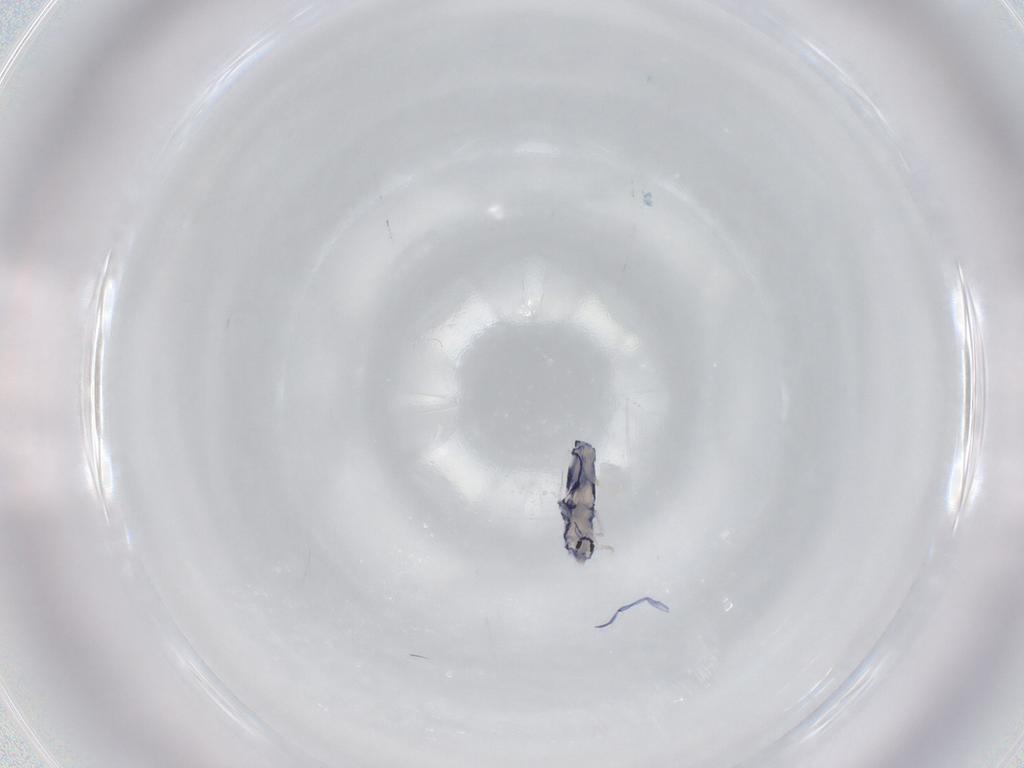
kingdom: Animalia
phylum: Arthropoda
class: Collembola
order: Entomobryomorpha
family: Entomobryidae
